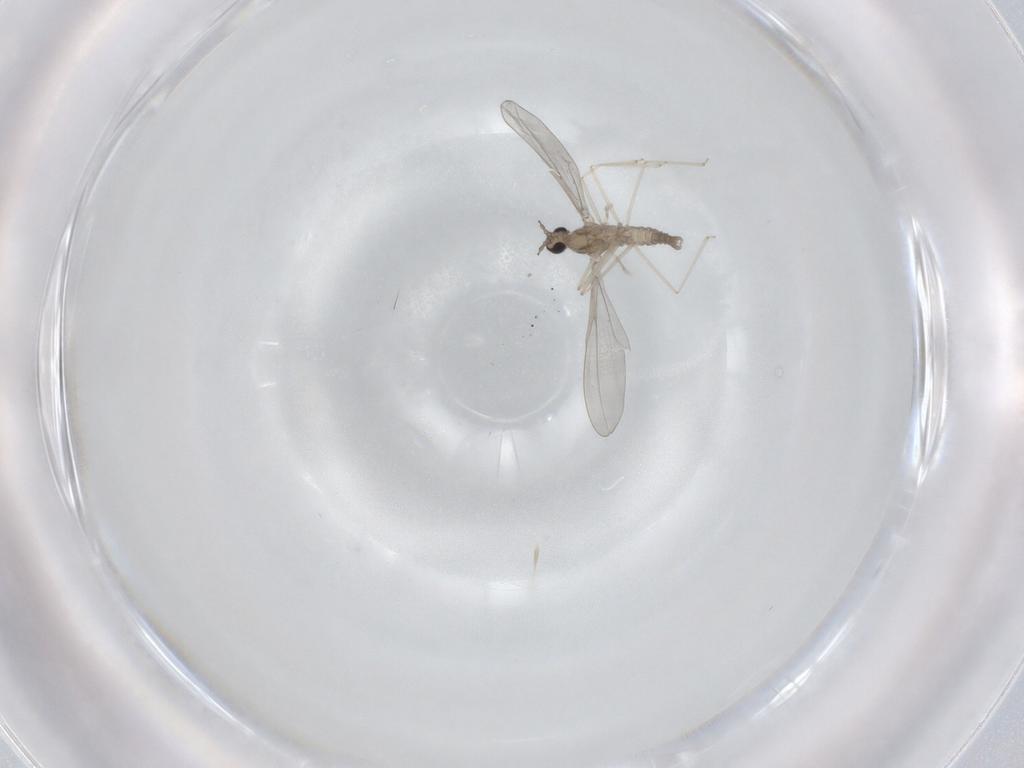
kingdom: Animalia
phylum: Arthropoda
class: Insecta
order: Diptera
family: Cecidomyiidae
